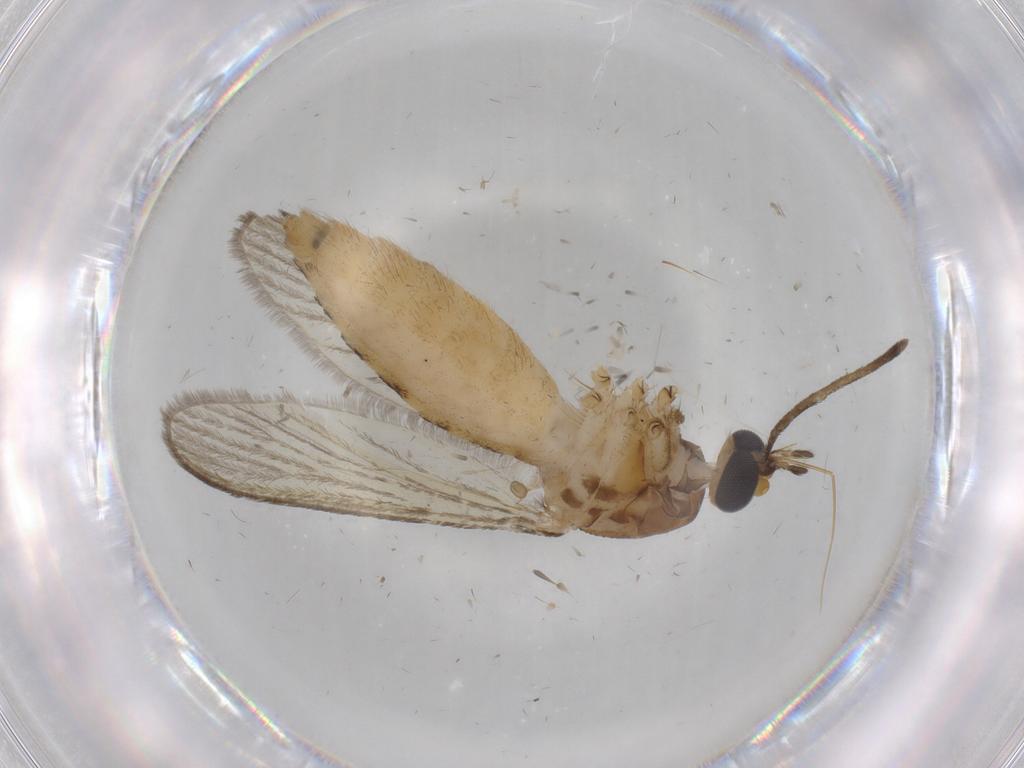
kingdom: Animalia
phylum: Arthropoda
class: Insecta
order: Diptera
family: Culicidae
